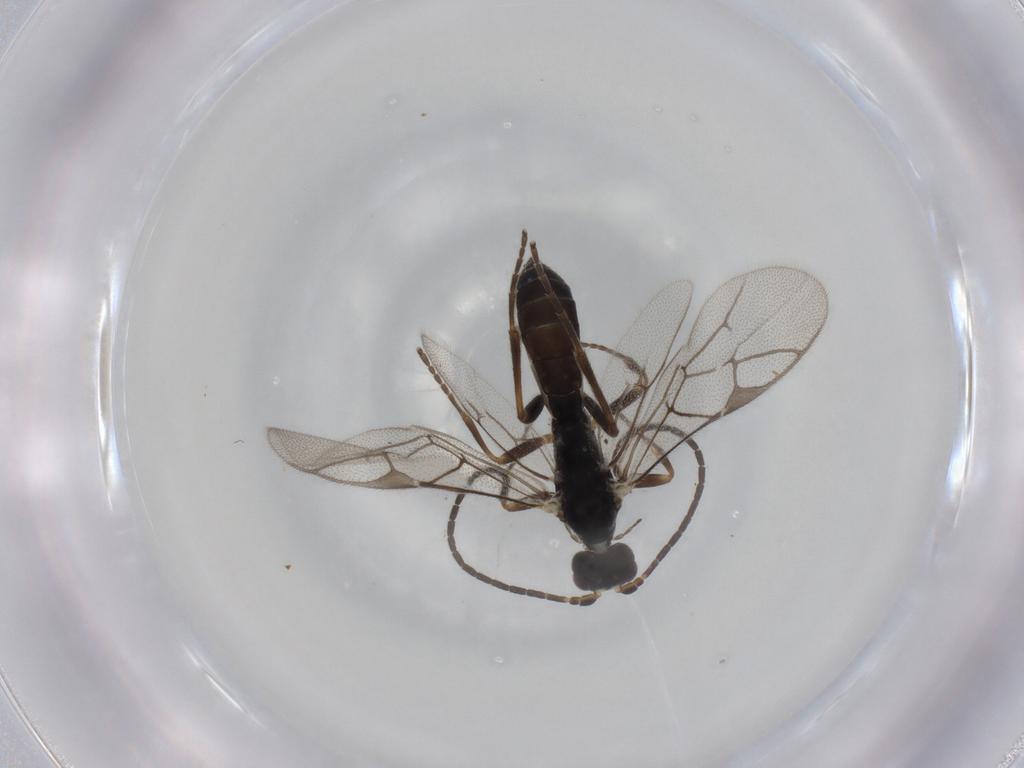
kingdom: Animalia
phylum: Arthropoda
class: Insecta
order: Hymenoptera
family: Ichneumonidae
